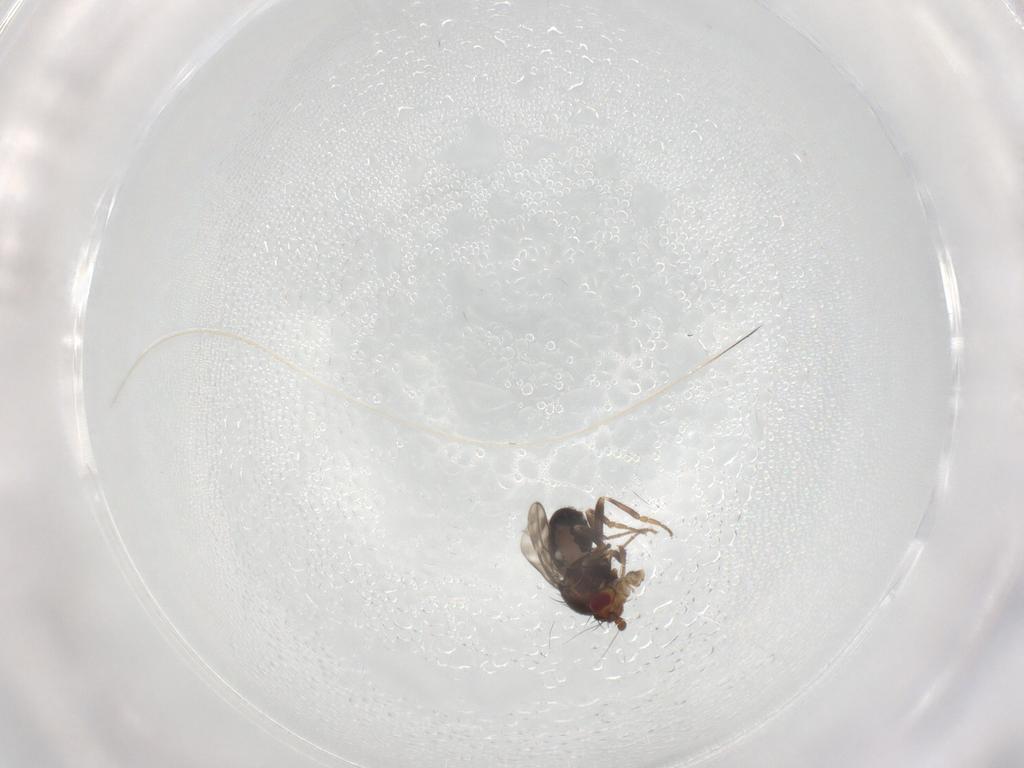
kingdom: Animalia
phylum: Arthropoda
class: Insecta
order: Diptera
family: Sphaeroceridae
